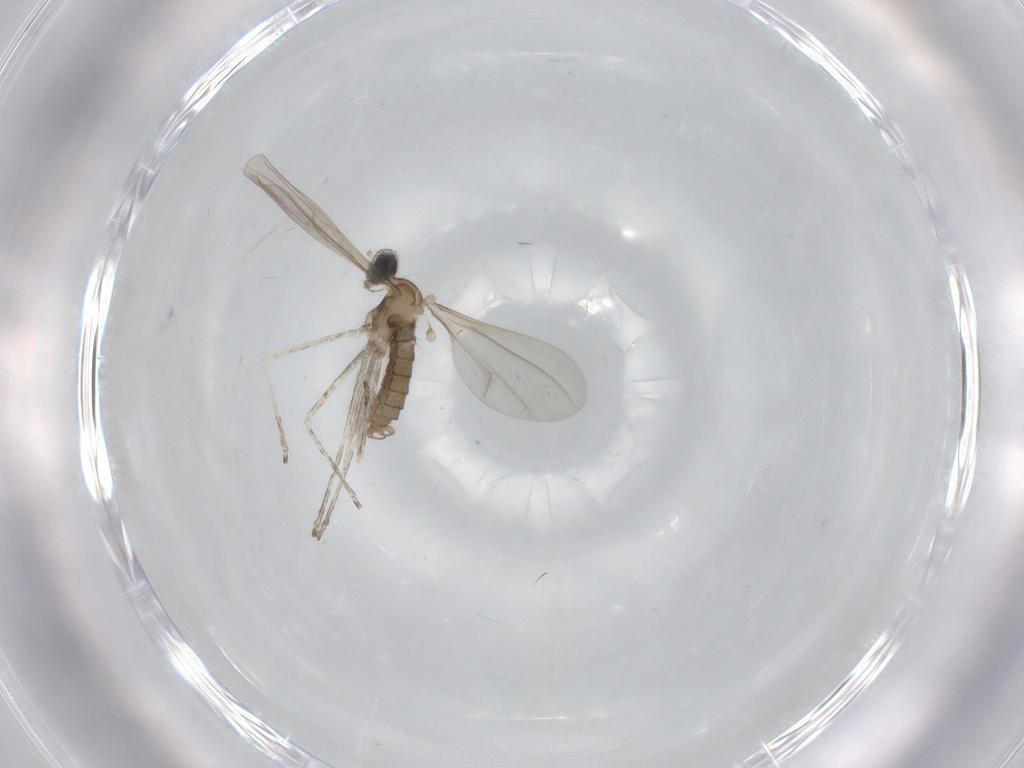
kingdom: Animalia
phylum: Arthropoda
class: Insecta
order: Diptera
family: Cecidomyiidae
